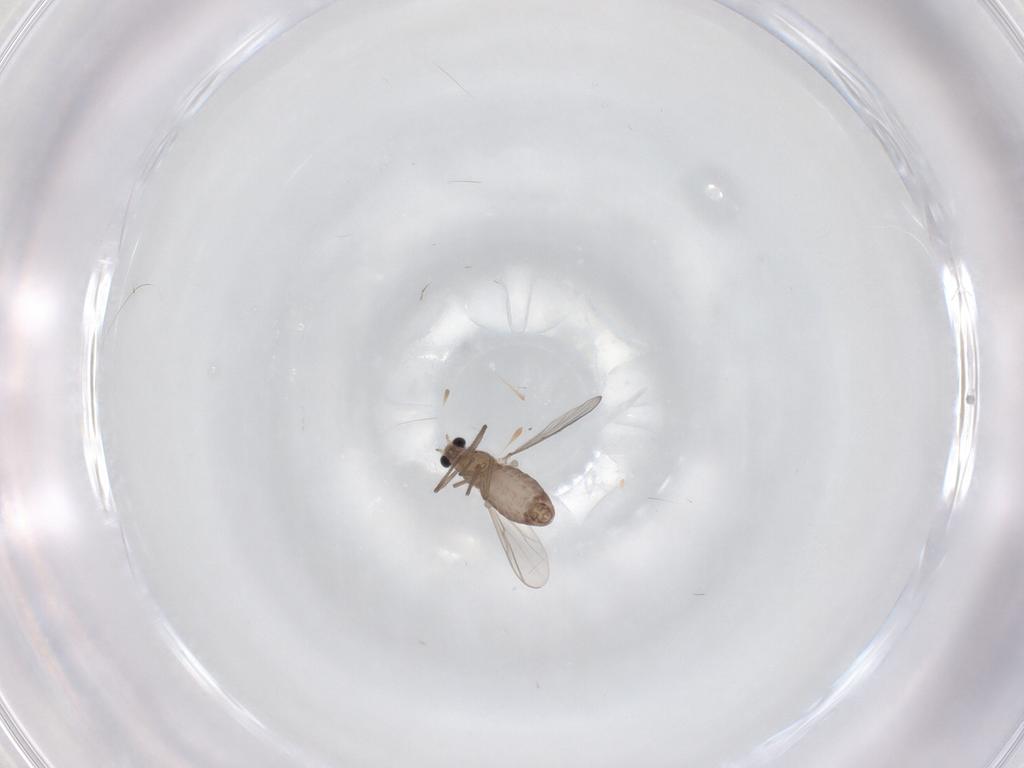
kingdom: Animalia
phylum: Arthropoda
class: Insecta
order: Diptera
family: Chironomidae
